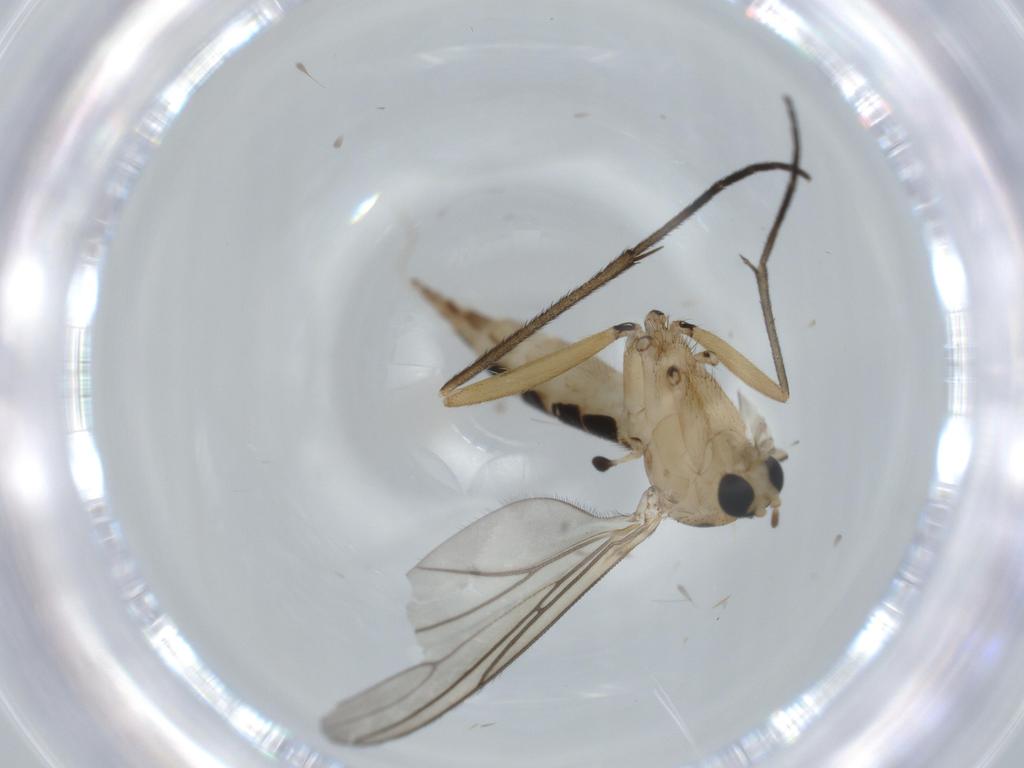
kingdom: Animalia
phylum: Arthropoda
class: Insecta
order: Diptera
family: Sciaridae
